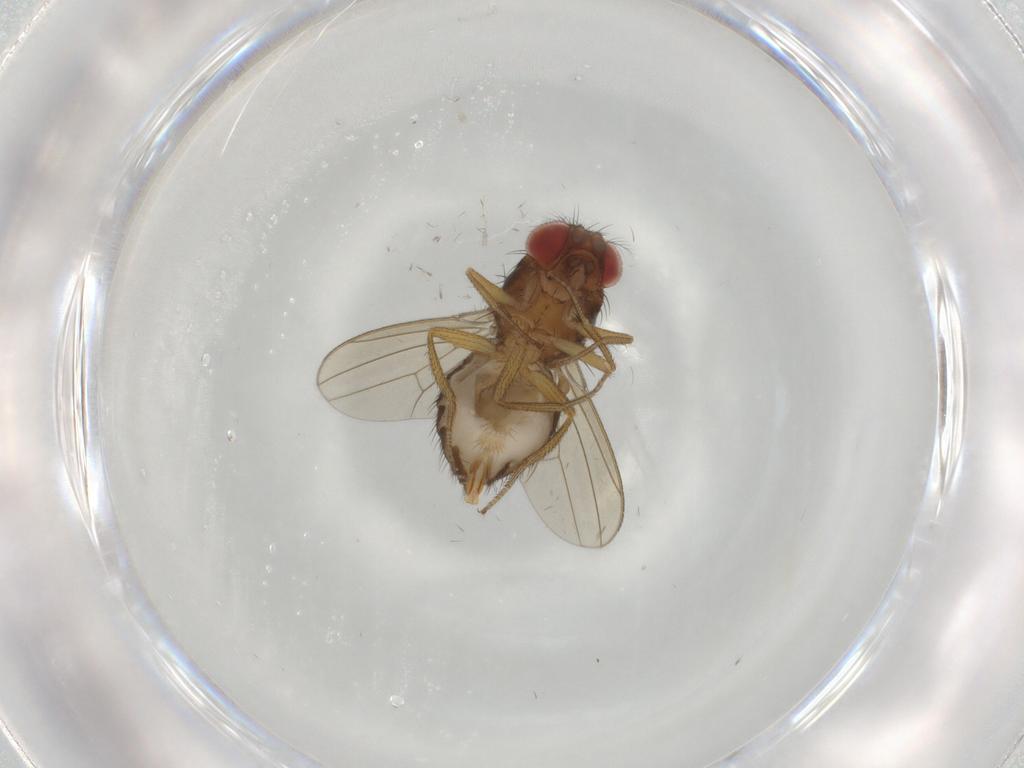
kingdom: Animalia
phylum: Arthropoda
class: Insecta
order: Diptera
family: Drosophilidae
